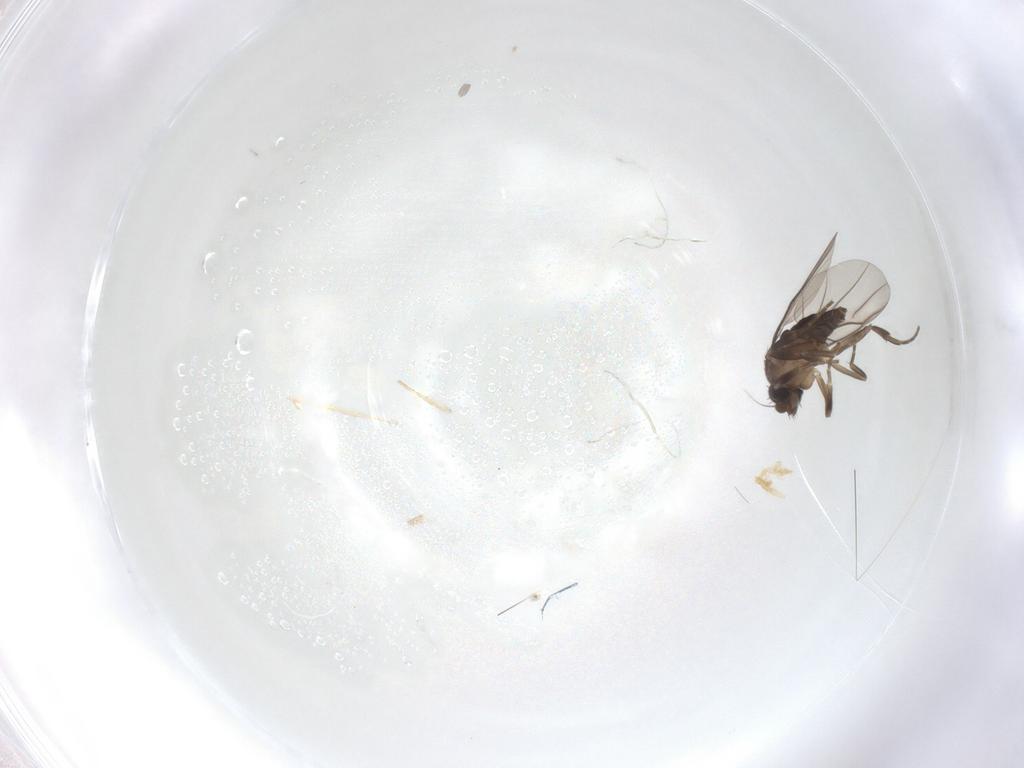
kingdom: Animalia
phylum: Arthropoda
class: Insecta
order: Diptera
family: Phoridae
